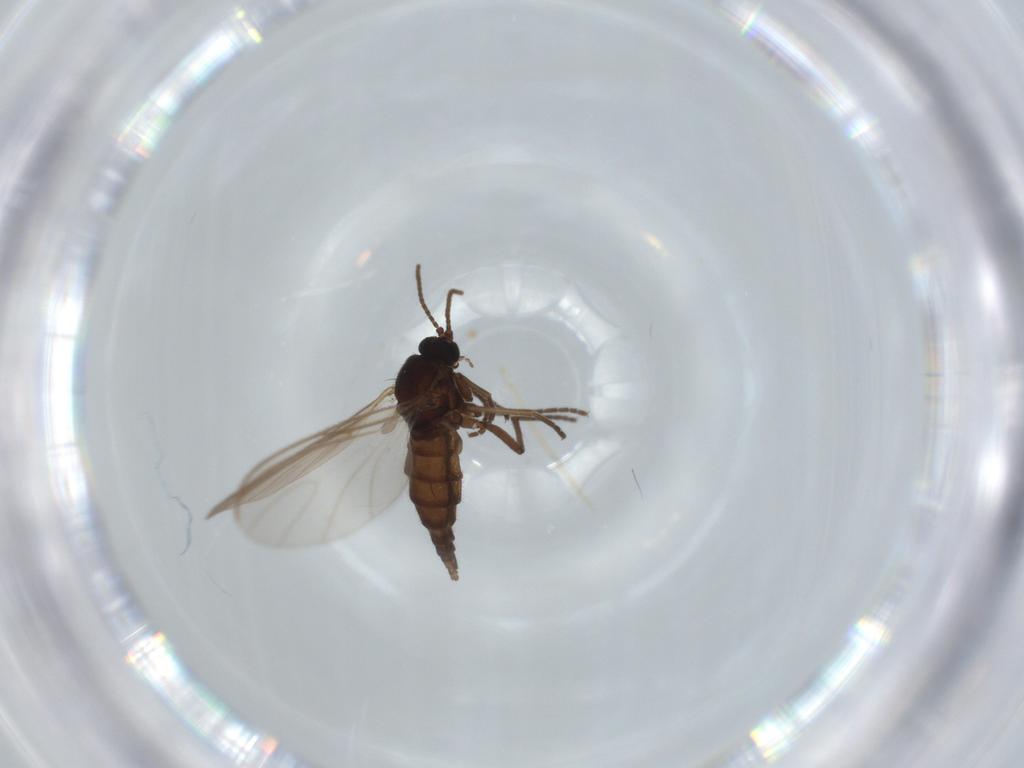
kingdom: Animalia
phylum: Arthropoda
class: Insecta
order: Diptera
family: Sciaridae
